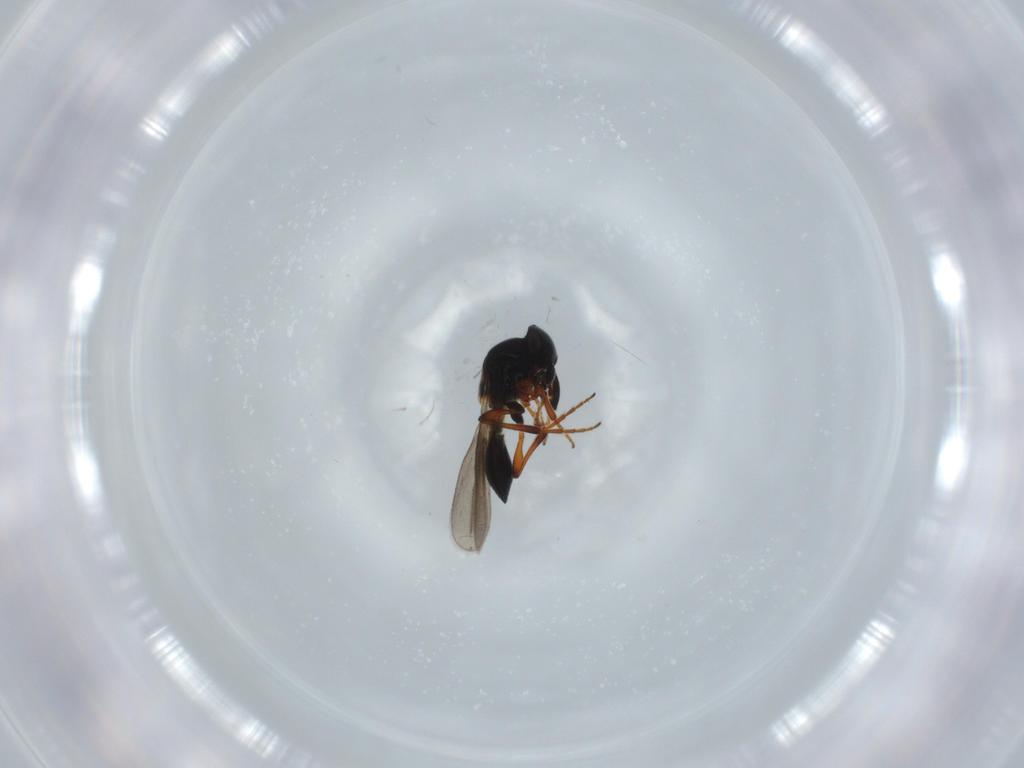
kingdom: Animalia
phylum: Arthropoda
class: Insecta
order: Hymenoptera
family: Platygastridae
